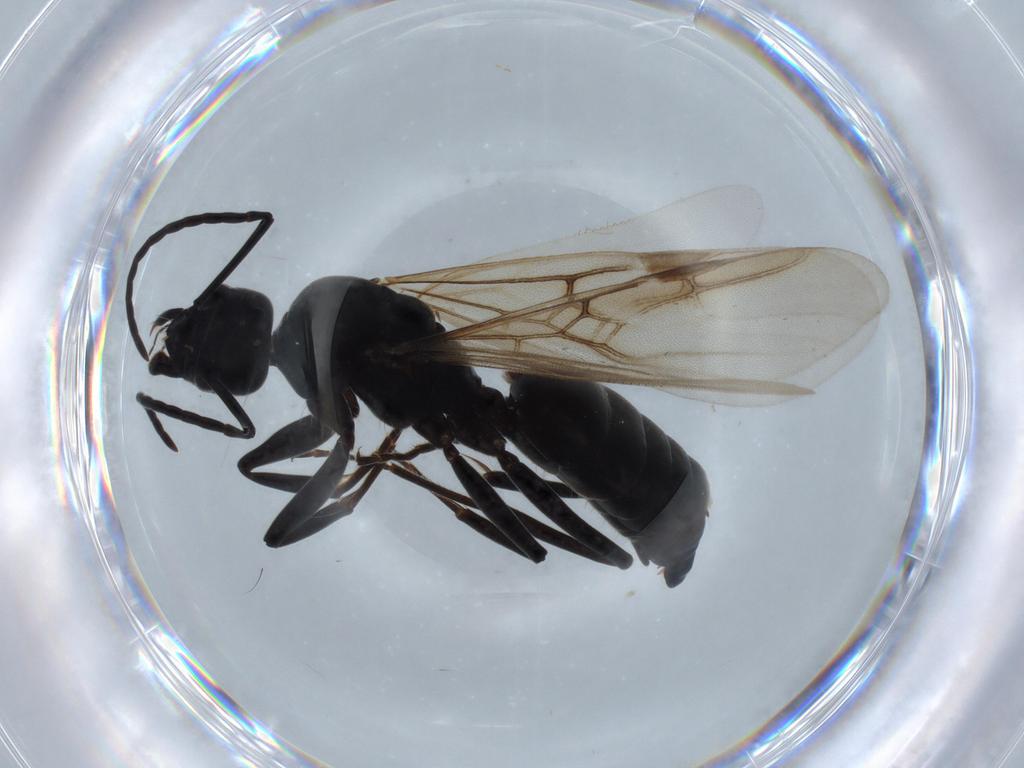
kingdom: Animalia
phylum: Arthropoda
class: Insecta
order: Hymenoptera
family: Formicidae
